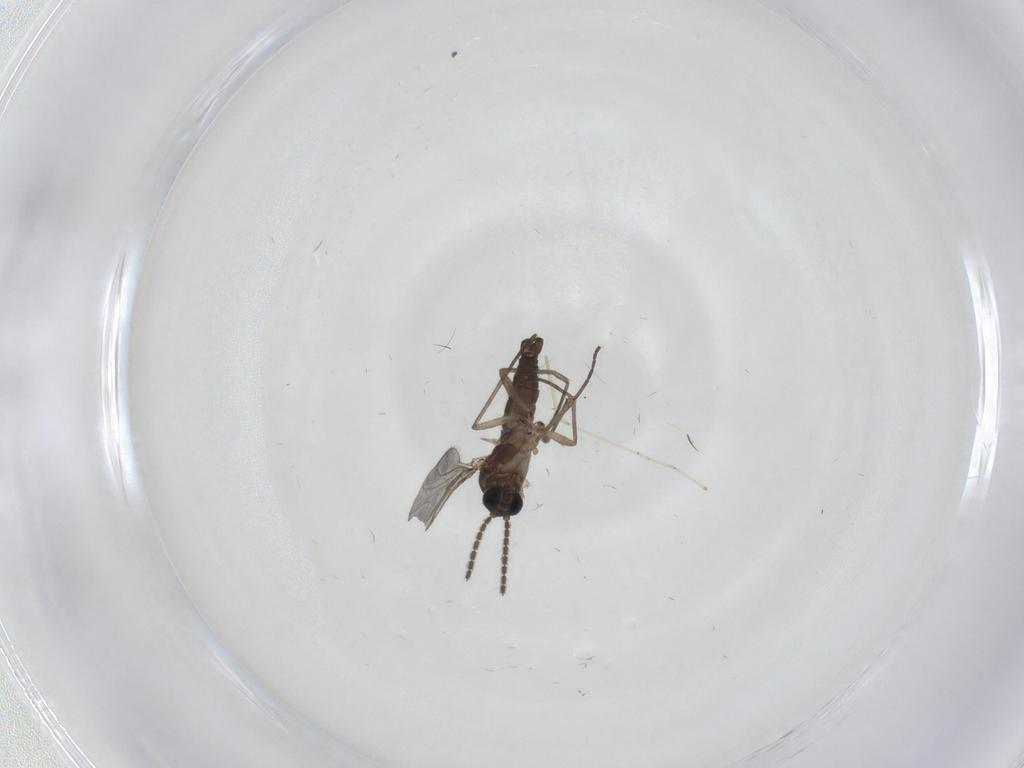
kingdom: Animalia
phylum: Arthropoda
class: Insecta
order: Diptera
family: Sciaridae
